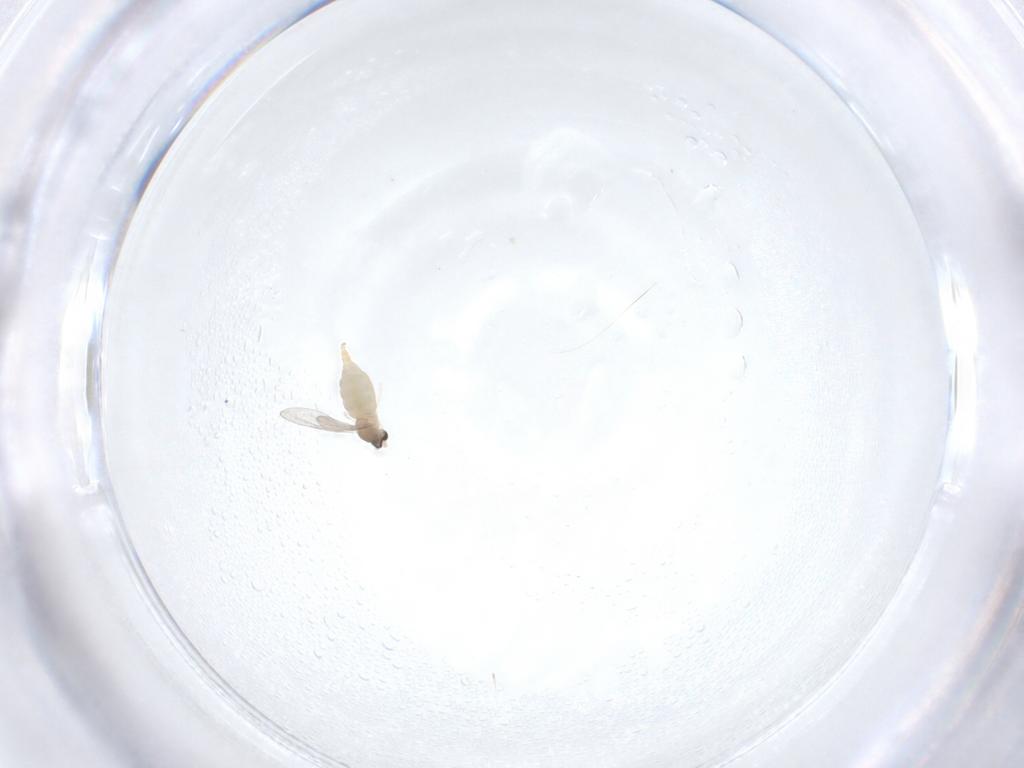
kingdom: Animalia
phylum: Arthropoda
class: Insecta
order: Diptera
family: Cecidomyiidae
